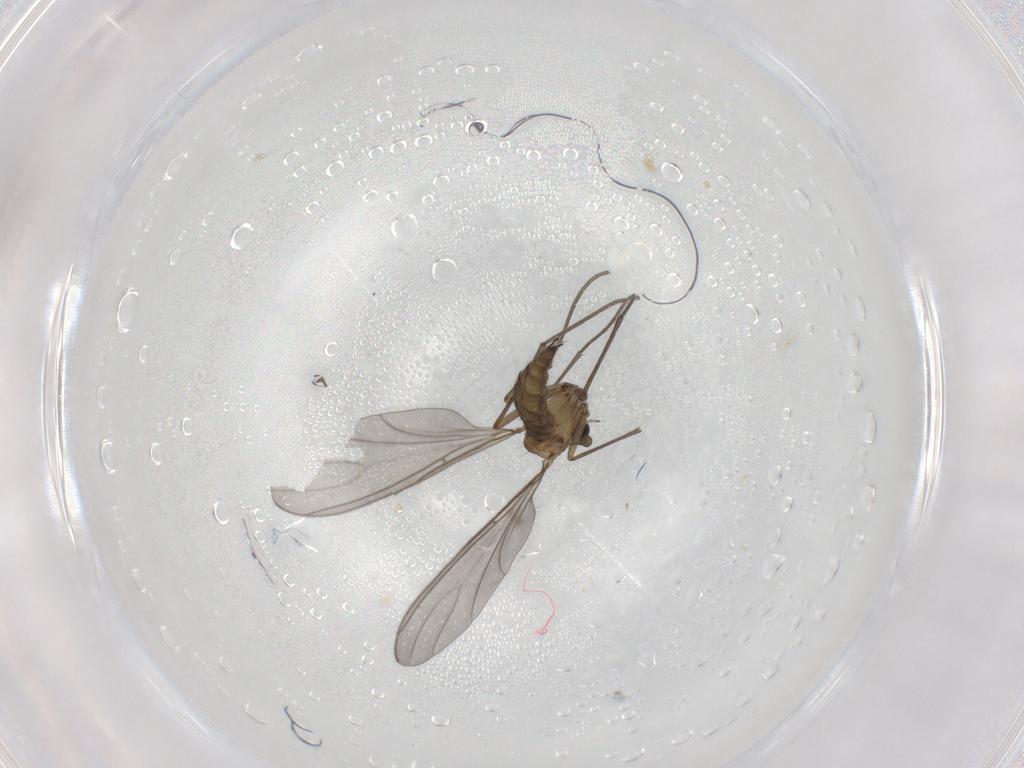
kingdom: Animalia
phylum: Arthropoda
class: Insecta
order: Diptera
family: Sciaridae
